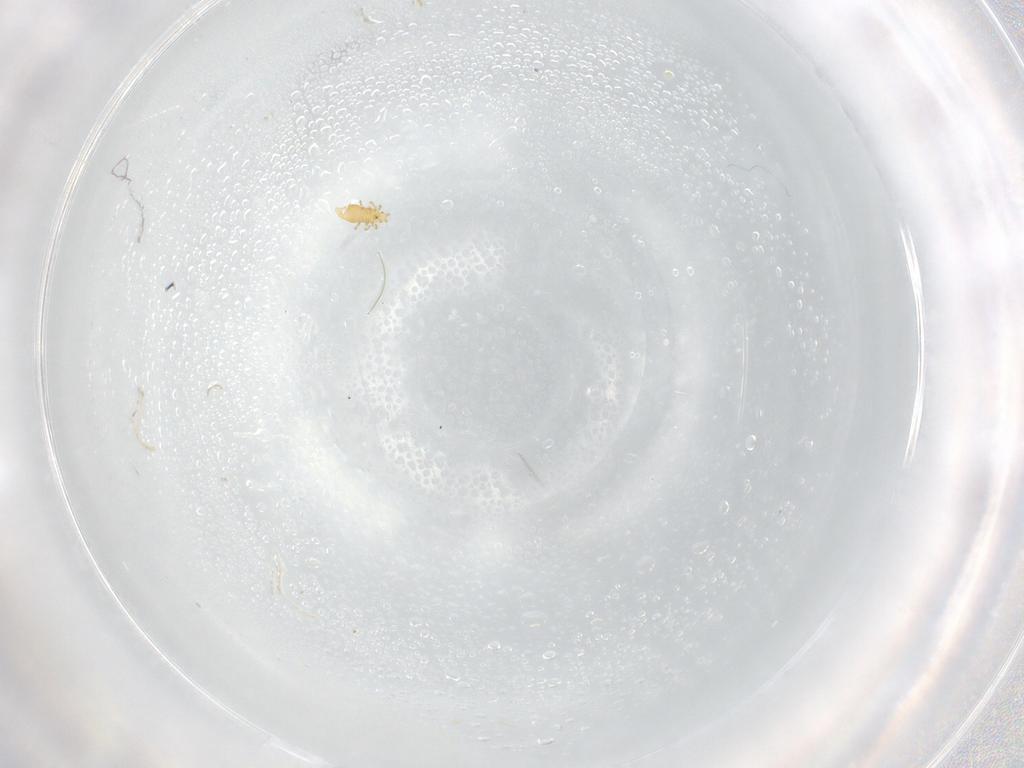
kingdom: Animalia
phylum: Arthropoda
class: Insecta
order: Thysanoptera
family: Thripidae
